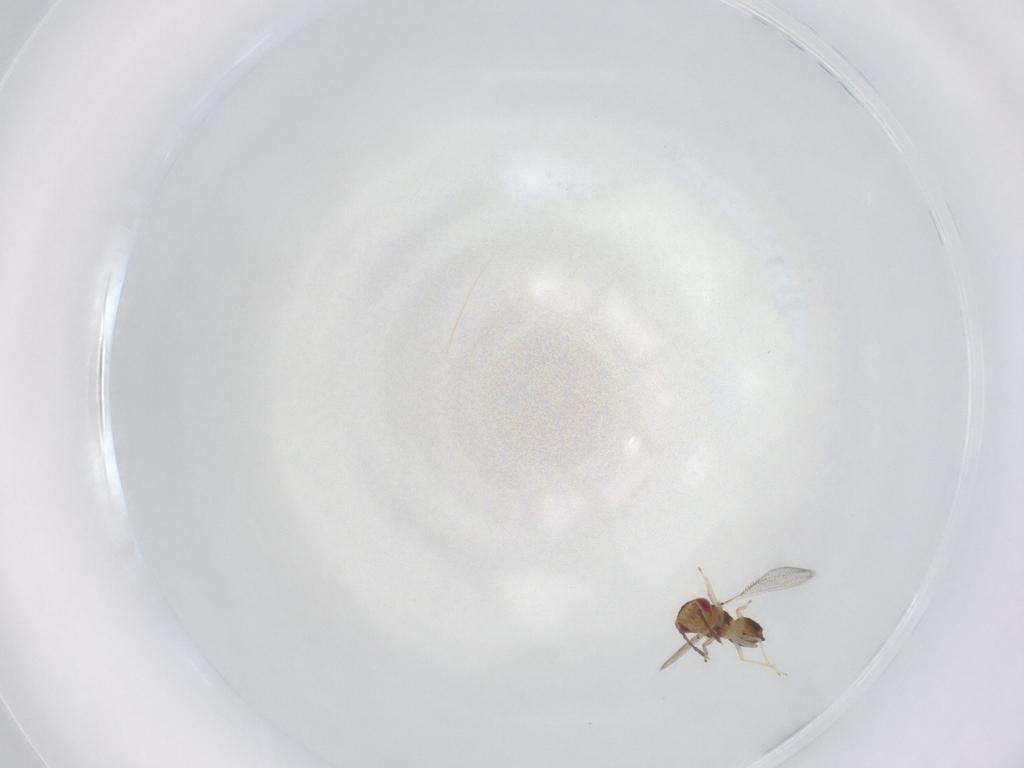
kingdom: Animalia
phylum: Arthropoda
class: Insecta
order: Hymenoptera
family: Eulophidae
